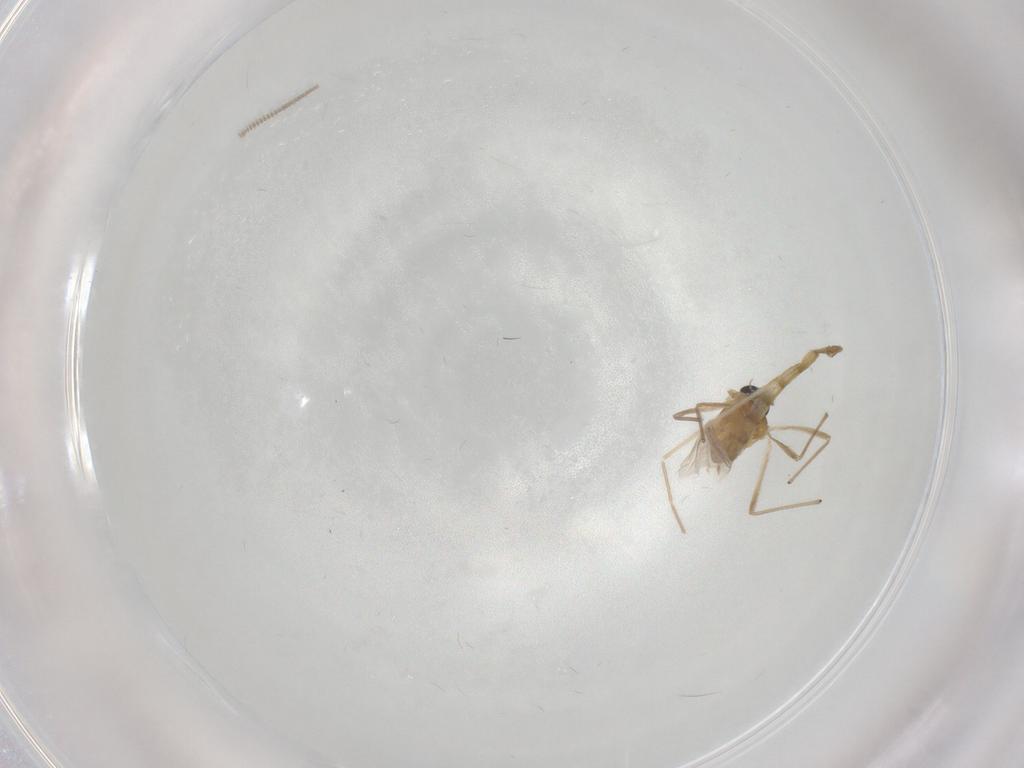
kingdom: Animalia
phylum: Arthropoda
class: Insecta
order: Diptera
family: Chironomidae
